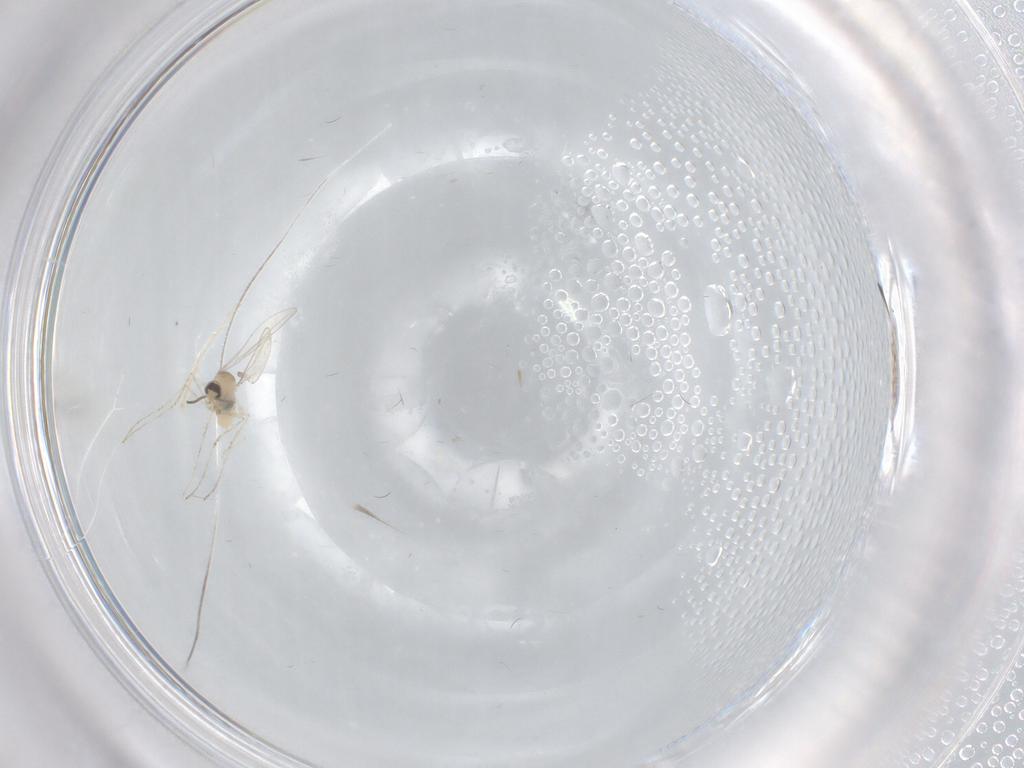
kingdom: Animalia
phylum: Arthropoda
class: Insecta
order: Diptera
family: Cecidomyiidae
